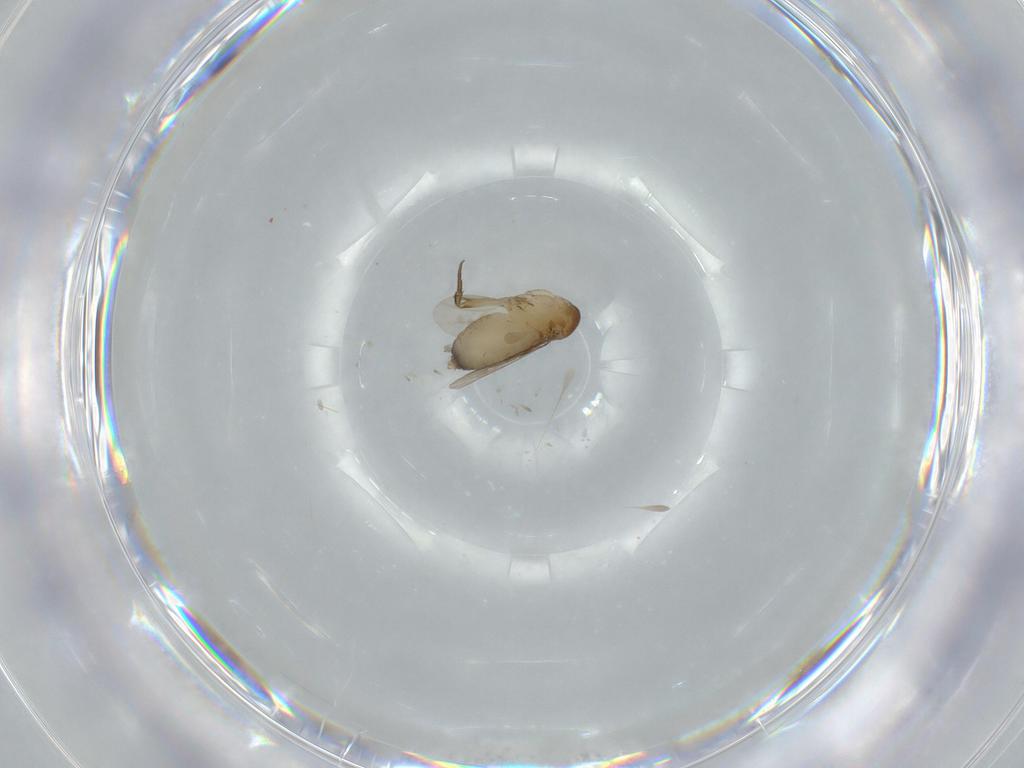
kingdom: Animalia
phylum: Arthropoda
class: Insecta
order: Diptera
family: Phoridae
